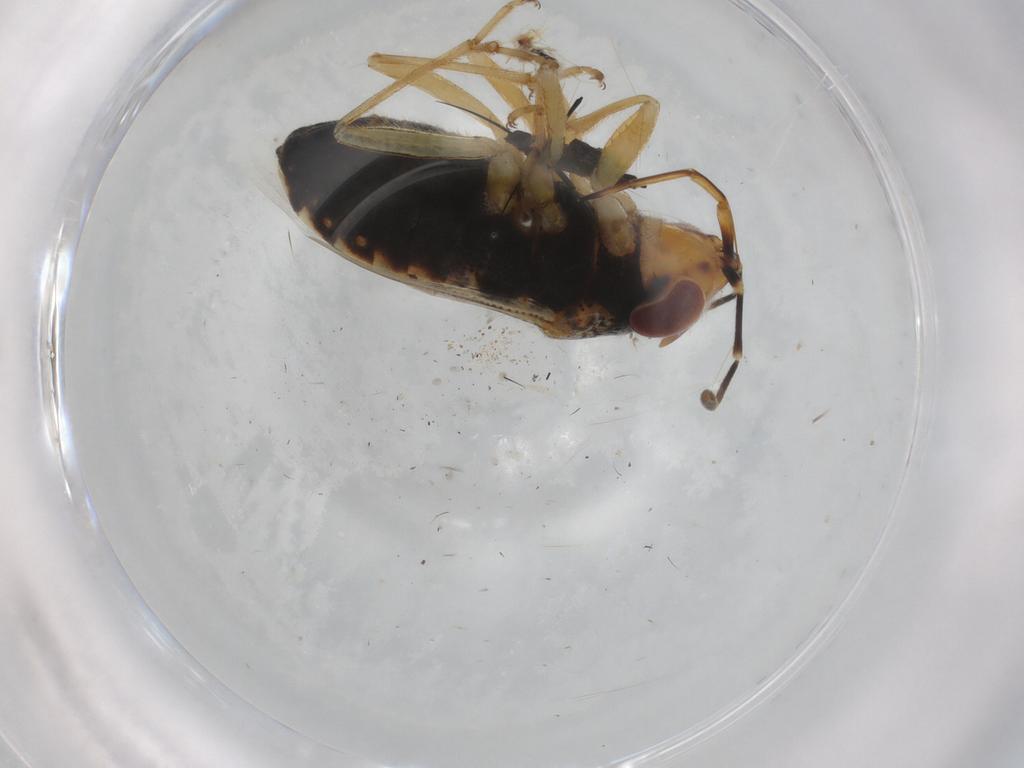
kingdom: Animalia
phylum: Arthropoda
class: Insecta
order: Hemiptera
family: Geocoridae
